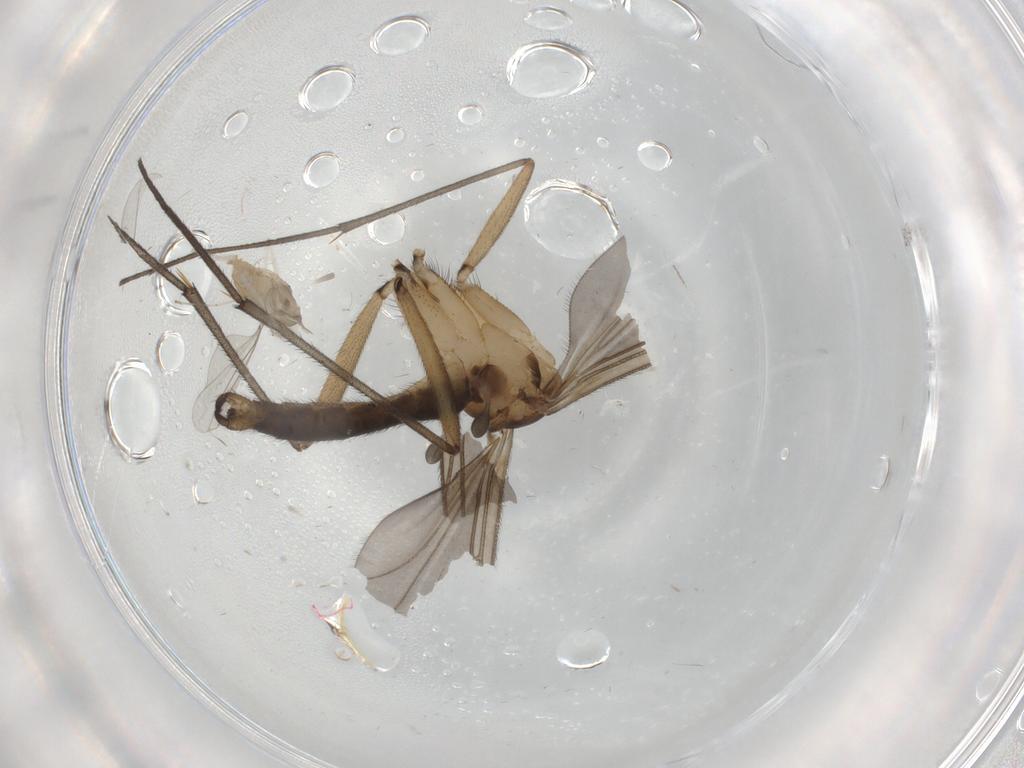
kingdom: Animalia
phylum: Arthropoda
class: Insecta
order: Diptera
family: Cecidomyiidae
